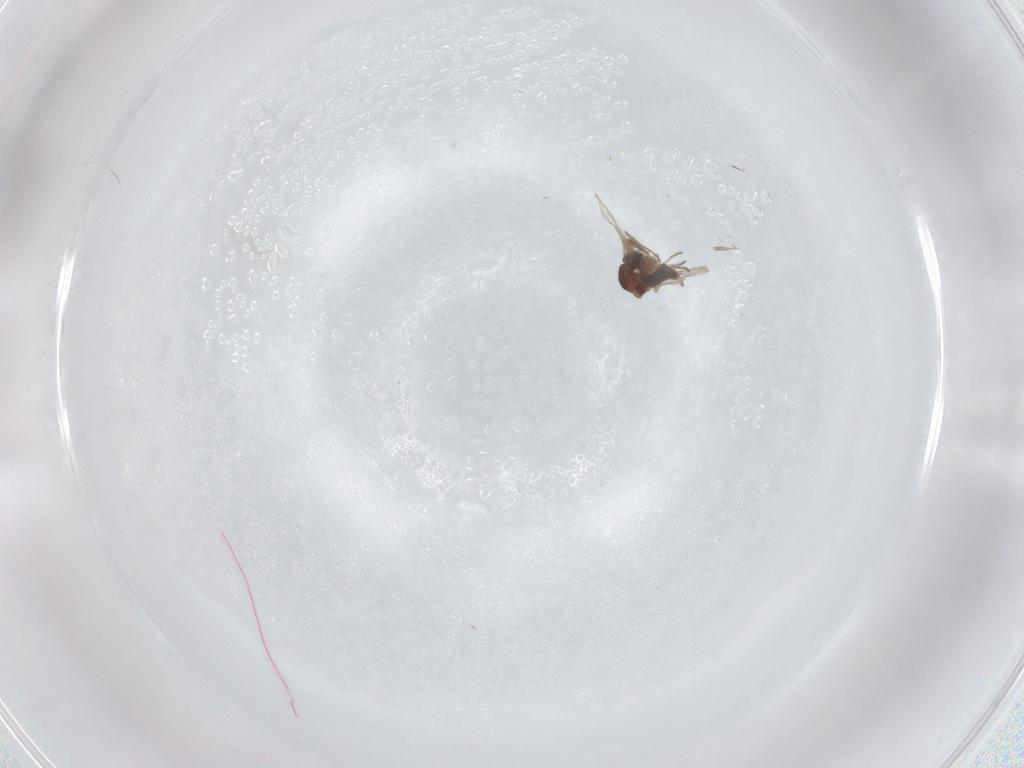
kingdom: Animalia
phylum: Arthropoda
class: Insecta
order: Diptera
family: Ceratopogonidae
